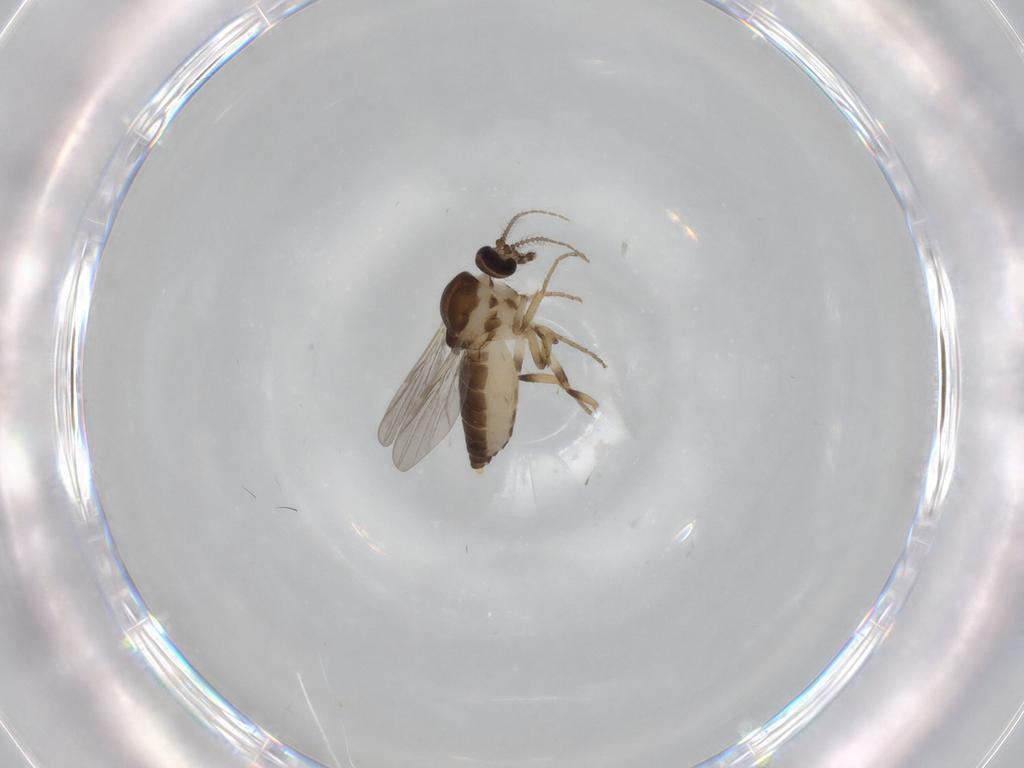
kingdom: Animalia
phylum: Arthropoda
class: Insecta
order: Diptera
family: Ceratopogonidae
